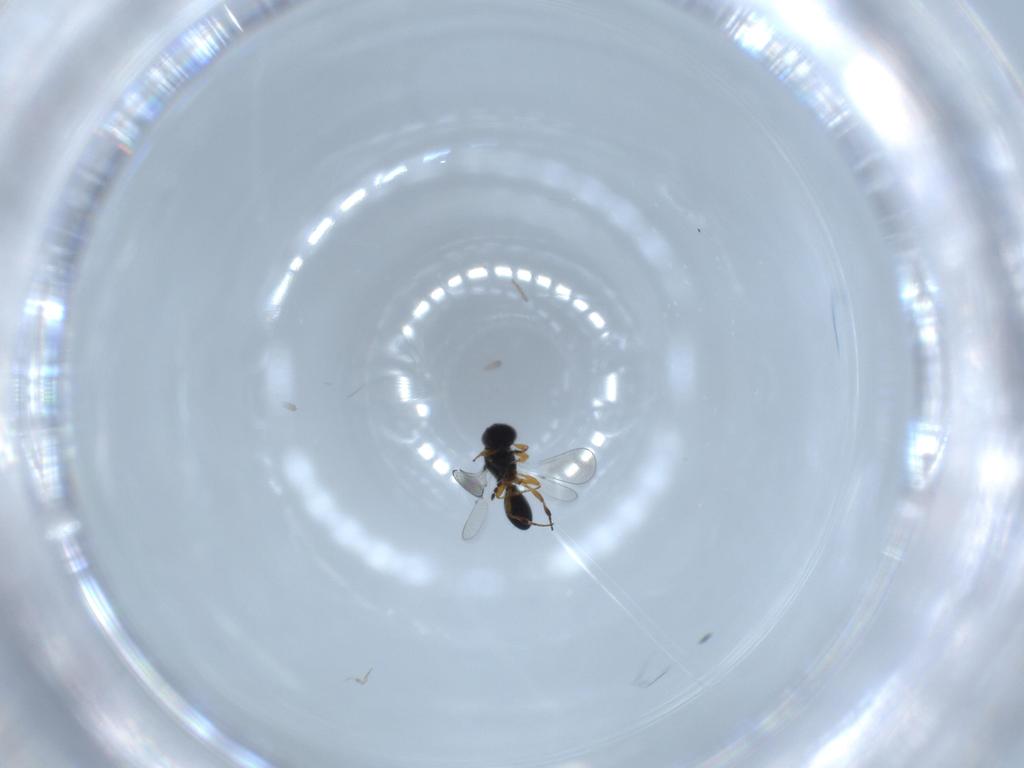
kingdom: Animalia
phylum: Arthropoda
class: Insecta
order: Hymenoptera
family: Platygastridae
